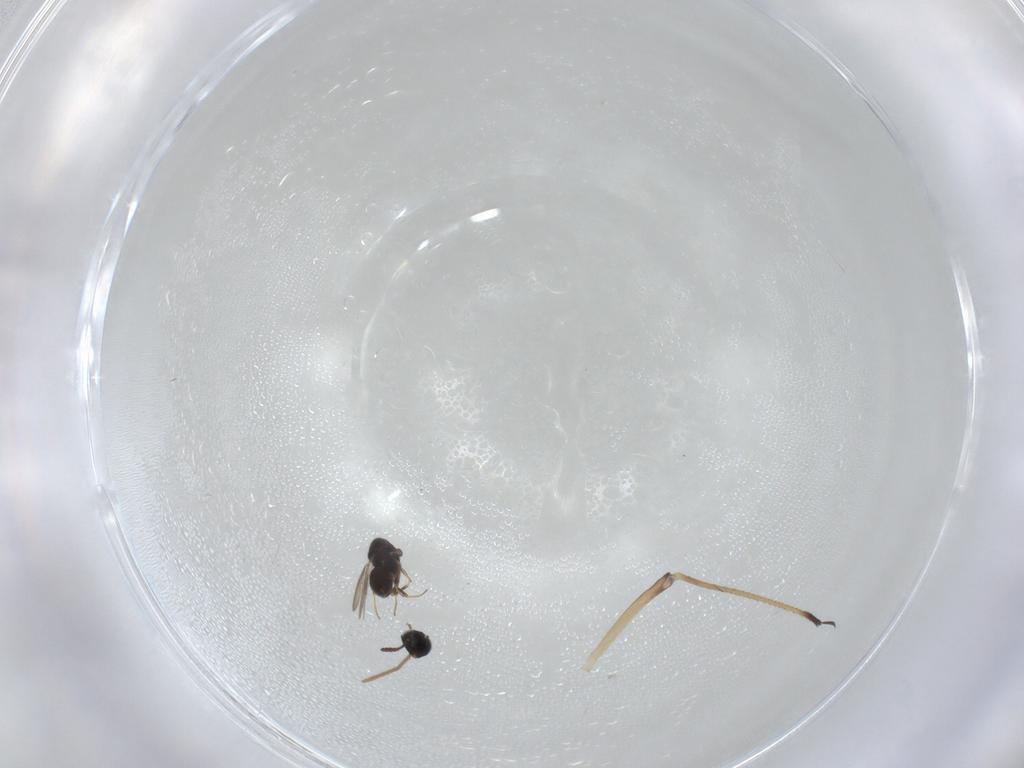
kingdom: Animalia
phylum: Arthropoda
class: Insecta
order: Hymenoptera
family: Scelionidae
